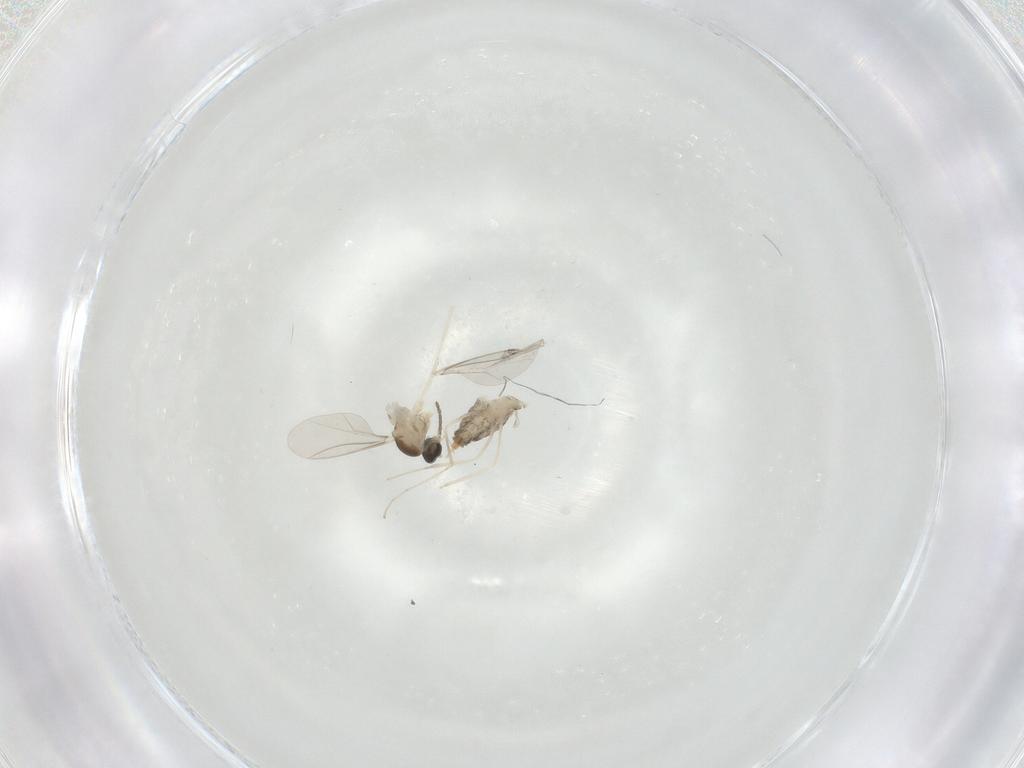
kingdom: Animalia
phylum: Arthropoda
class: Insecta
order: Diptera
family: Cecidomyiidae
